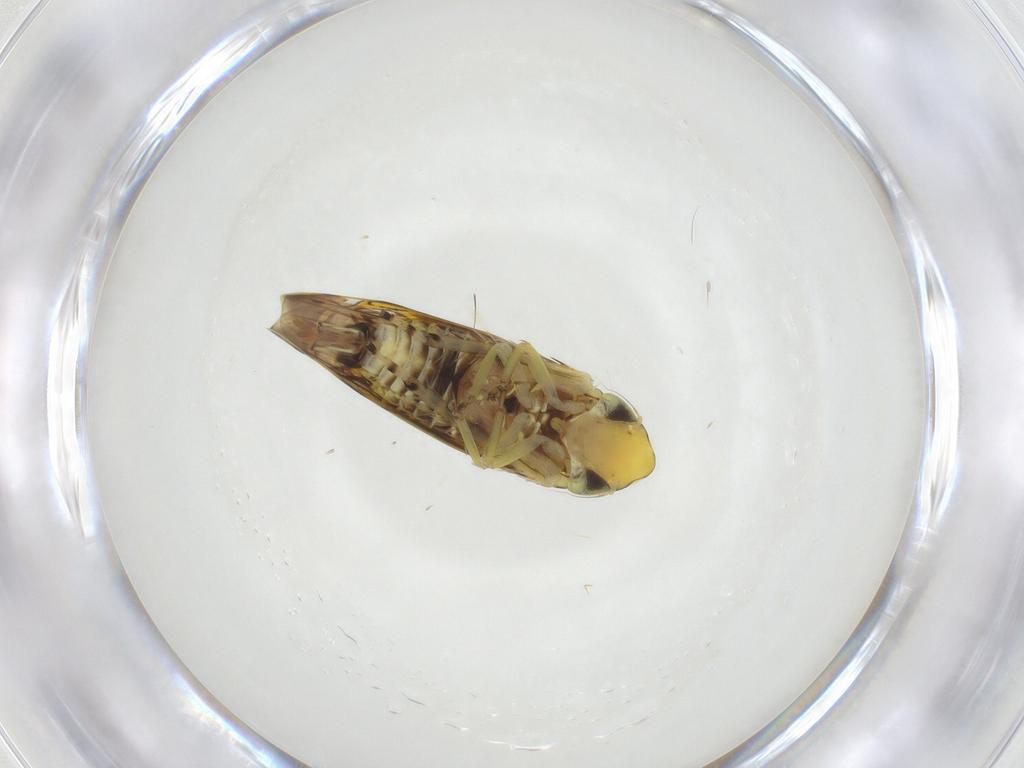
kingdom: Animalia
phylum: Arthropoda
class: Insecta
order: Hemiptera
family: Cicadellidae
